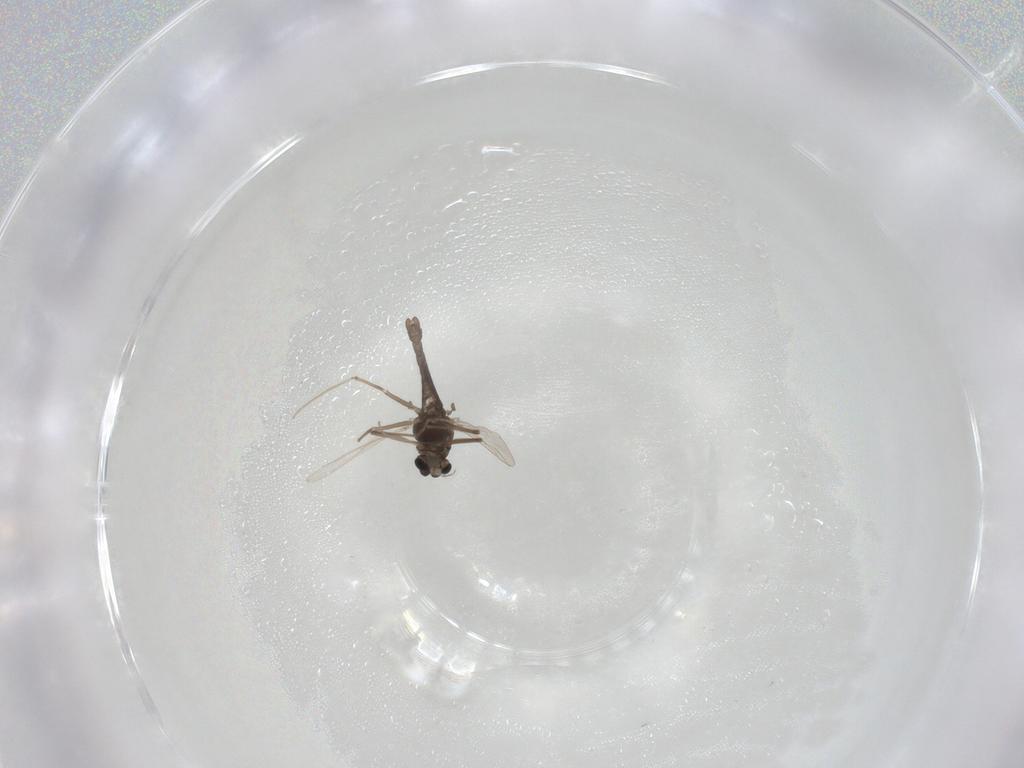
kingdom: Animalia
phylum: Arthropoda
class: Insecta
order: Diptera
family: Chironomidae
